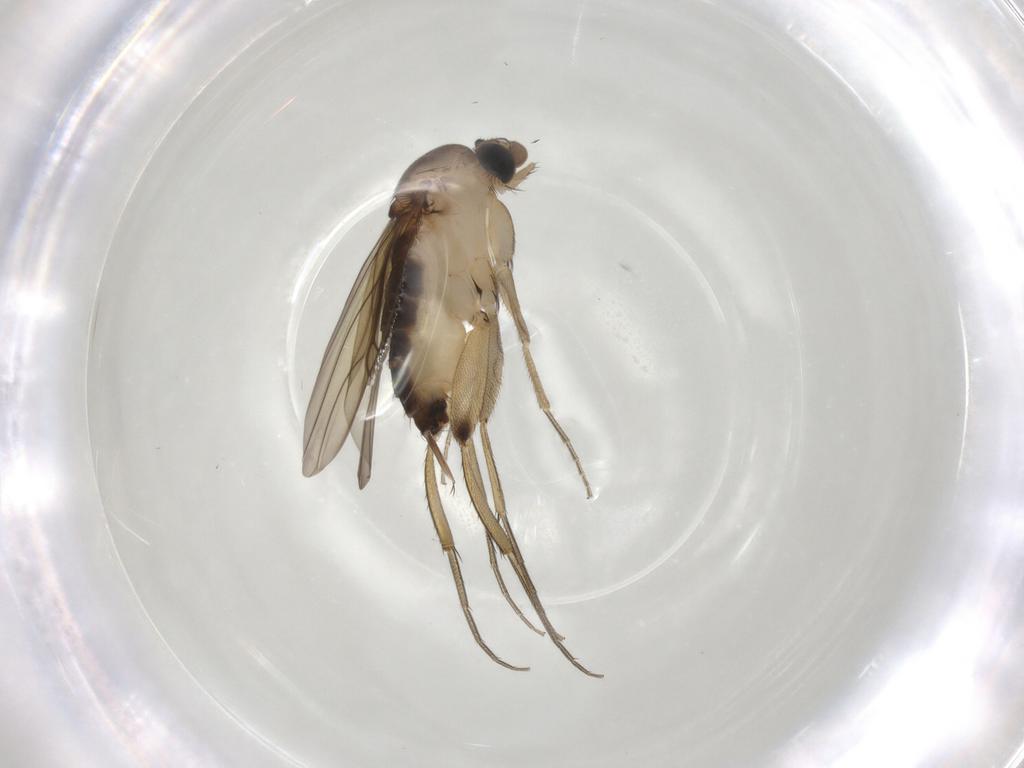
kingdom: Animalia
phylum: Arthropoda
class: Insecta
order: Diptera
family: Phoridae
